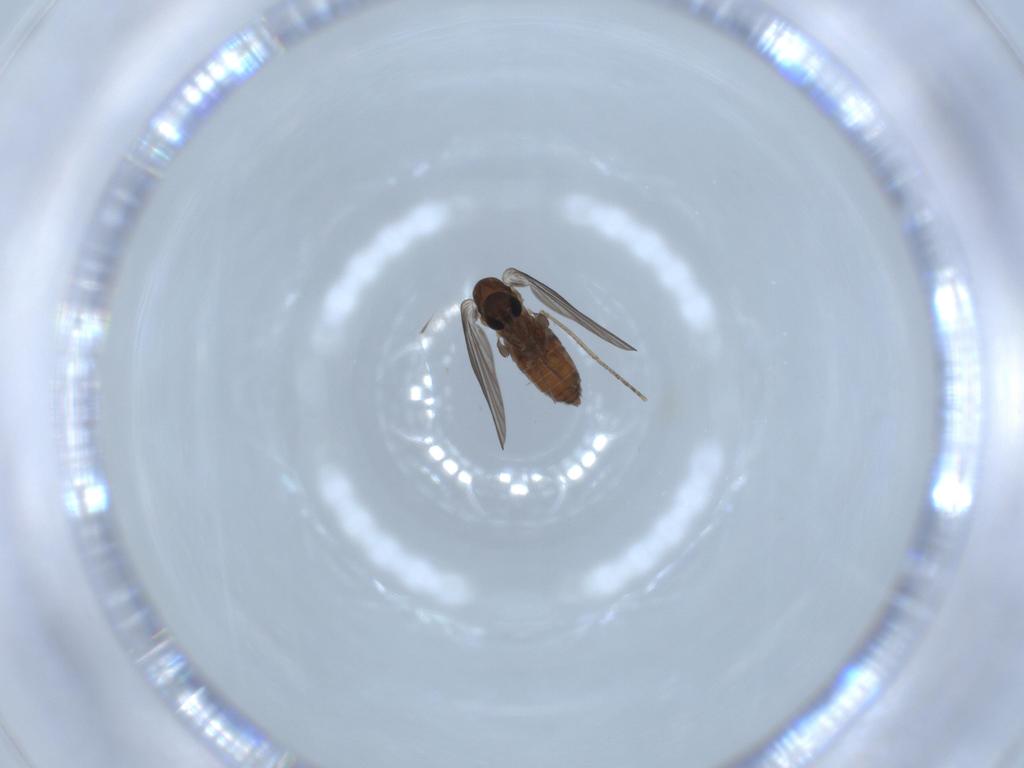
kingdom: Animalia
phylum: Arthropoda
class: Insecta
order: Diptera
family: Psychodidae
